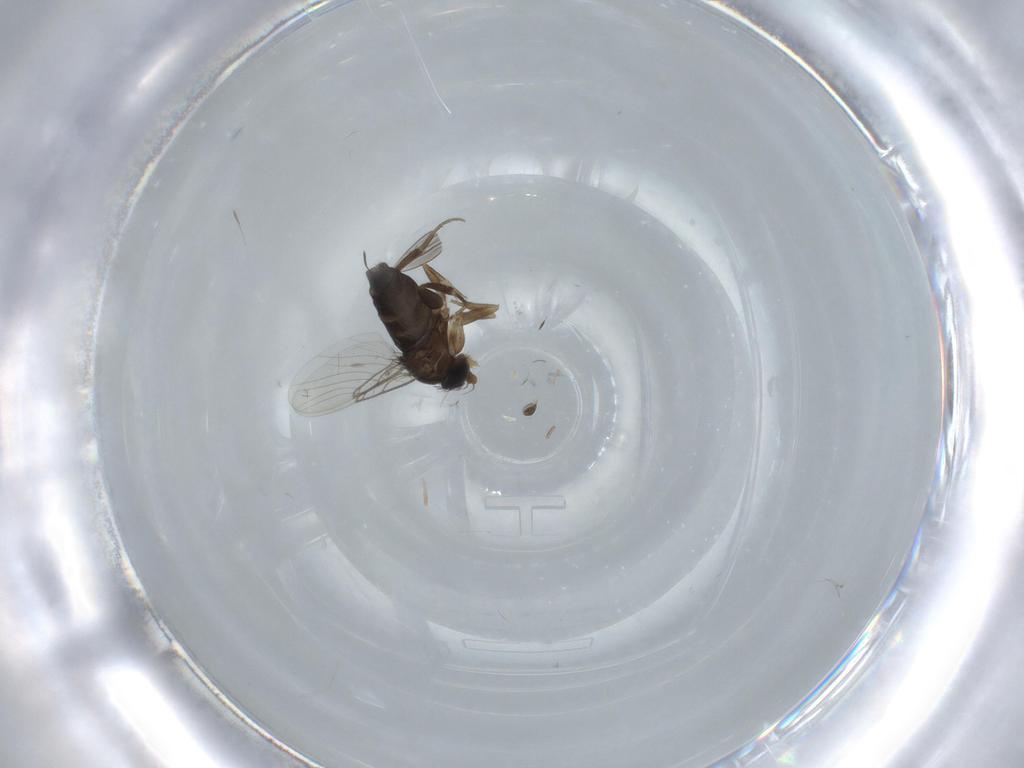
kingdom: Animalia
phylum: Arthropoda
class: Insecta
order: Diptera
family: Phoridae
